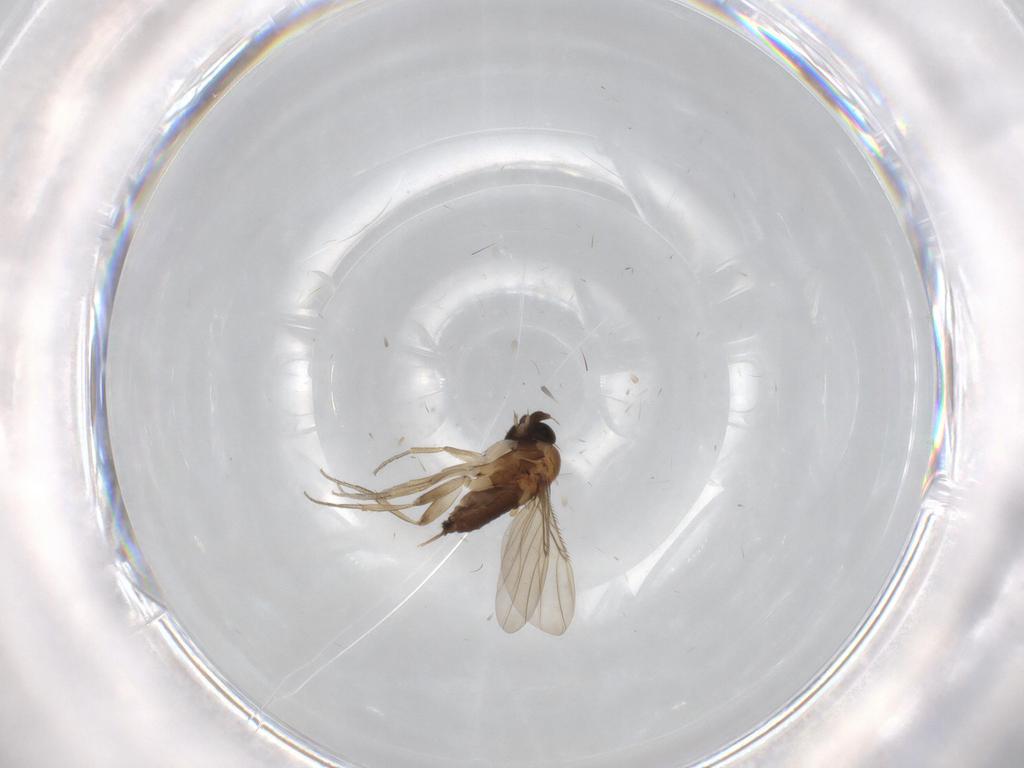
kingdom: Animalia
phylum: Arthropoda
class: Insecta
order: Diptera
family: Phoridae
